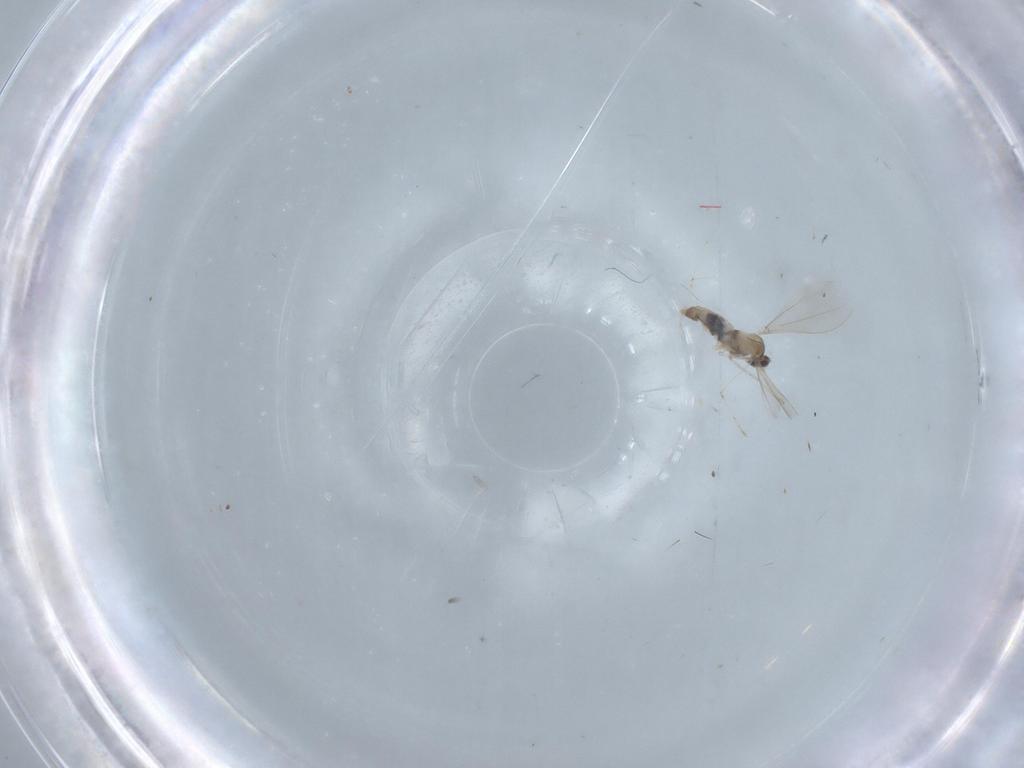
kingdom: Animalia
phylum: Arthropoda
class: Insecta
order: Diptera
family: Cecidomyiidae
